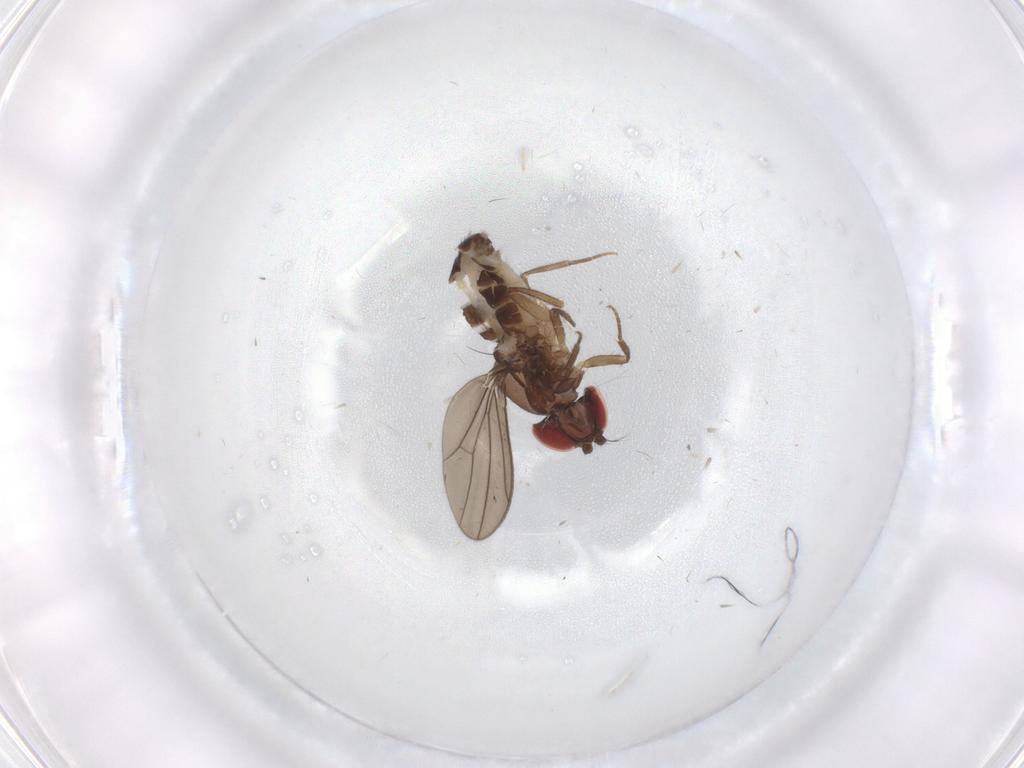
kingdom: Animalia
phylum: Arthropoda
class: Insecta
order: Diptera
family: Drosophilidae
